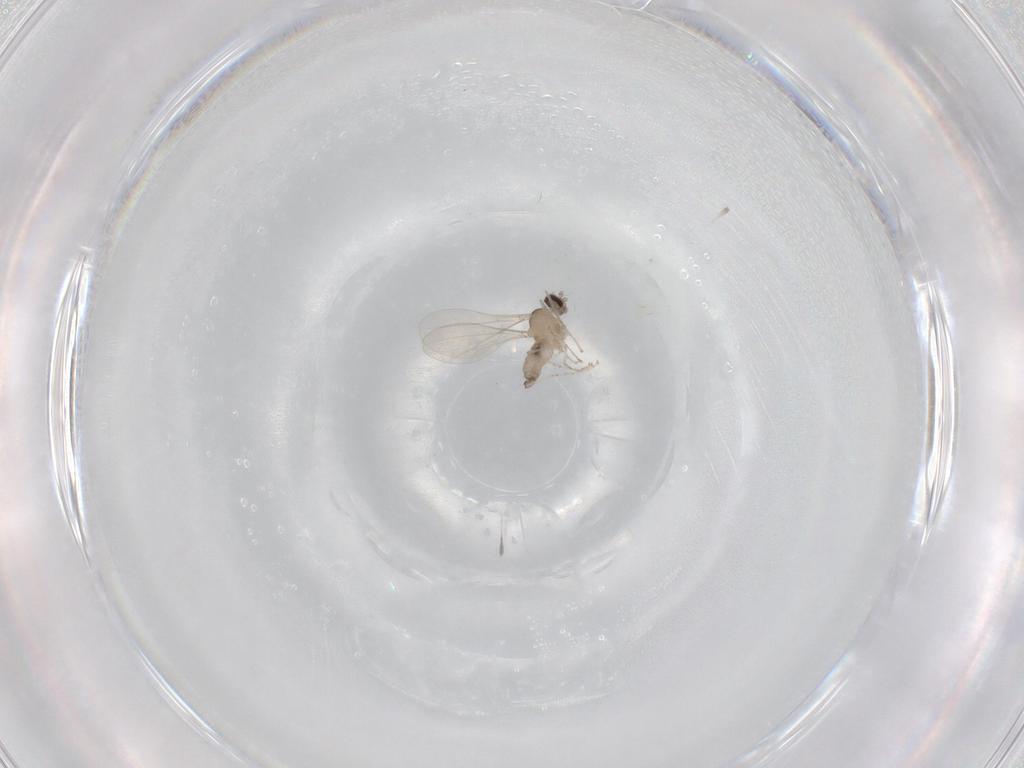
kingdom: Animalia
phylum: Arthropoda
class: Insecta
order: Diptera
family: Cecidomyiidae
